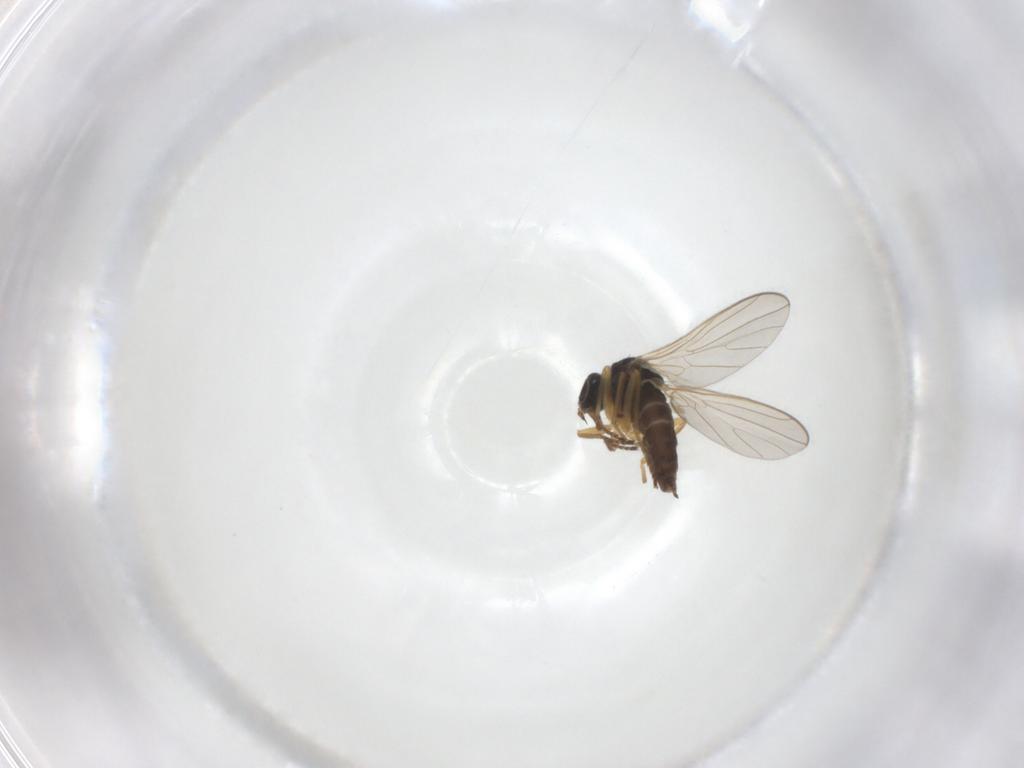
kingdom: Animalia
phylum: Arthropoda
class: Insecta
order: Diptera
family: Hybotidae
